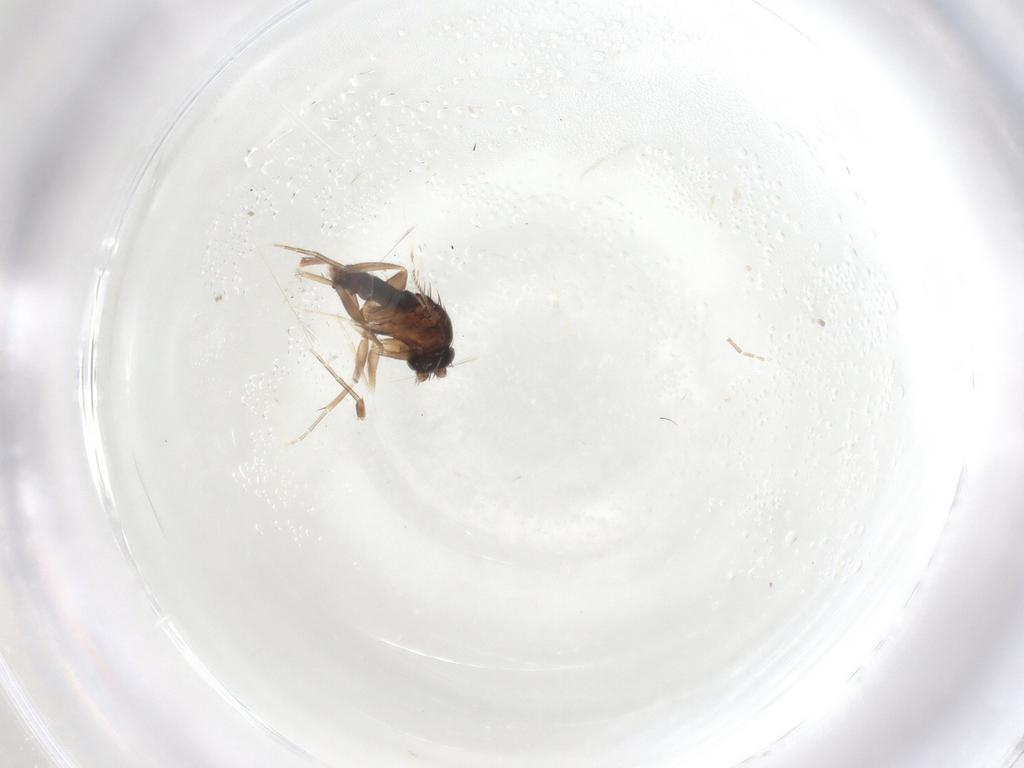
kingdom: Animalia
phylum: Arthropoda
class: Insecta
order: Diptera
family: Phoridae
